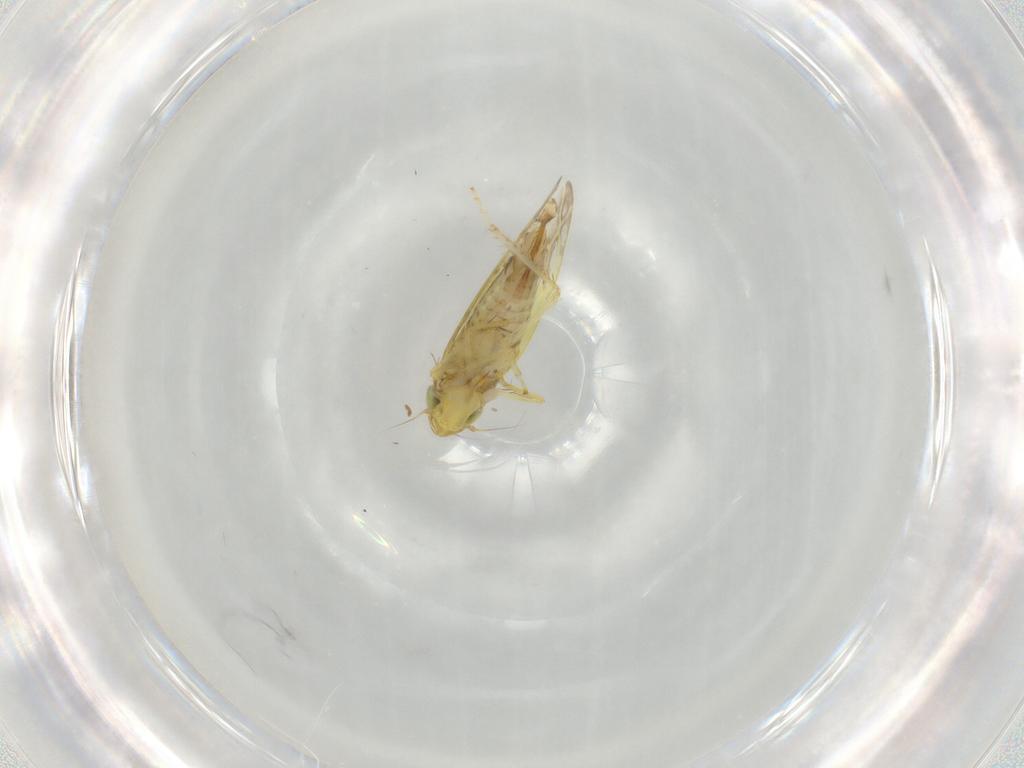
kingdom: Animalia
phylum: Arthropoda
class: Insecta
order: Hemiptera
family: Cicadellidae
